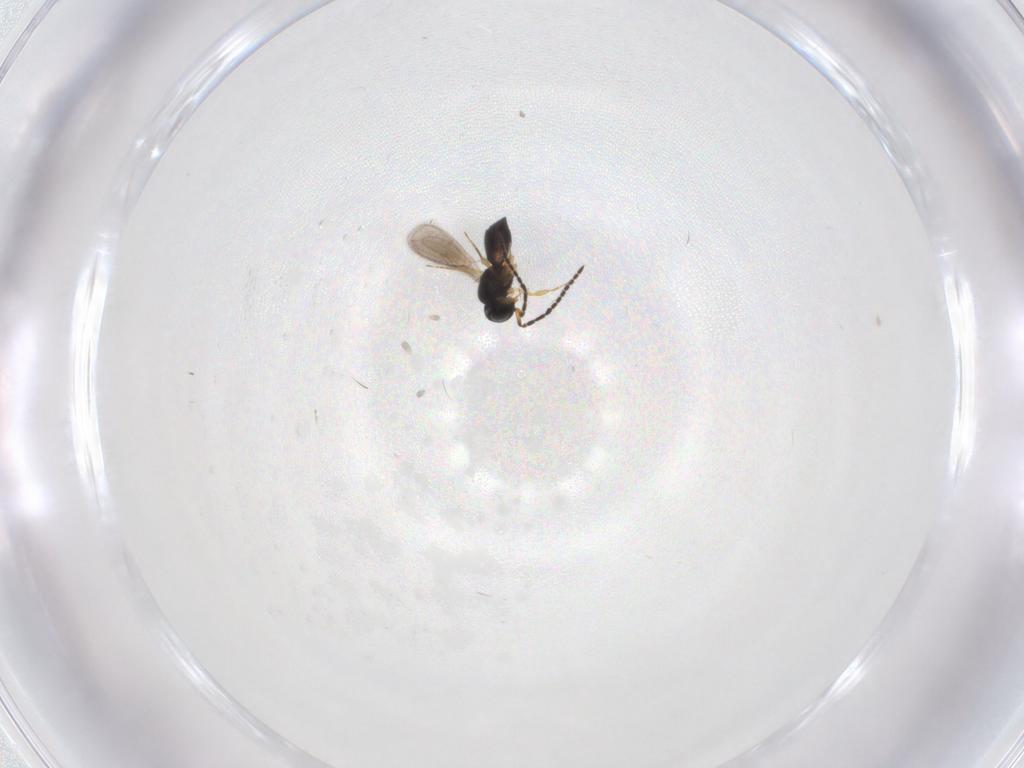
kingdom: Animalia
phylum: Arthropoda
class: Insecta
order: Hymenoptera
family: Scelionidae
